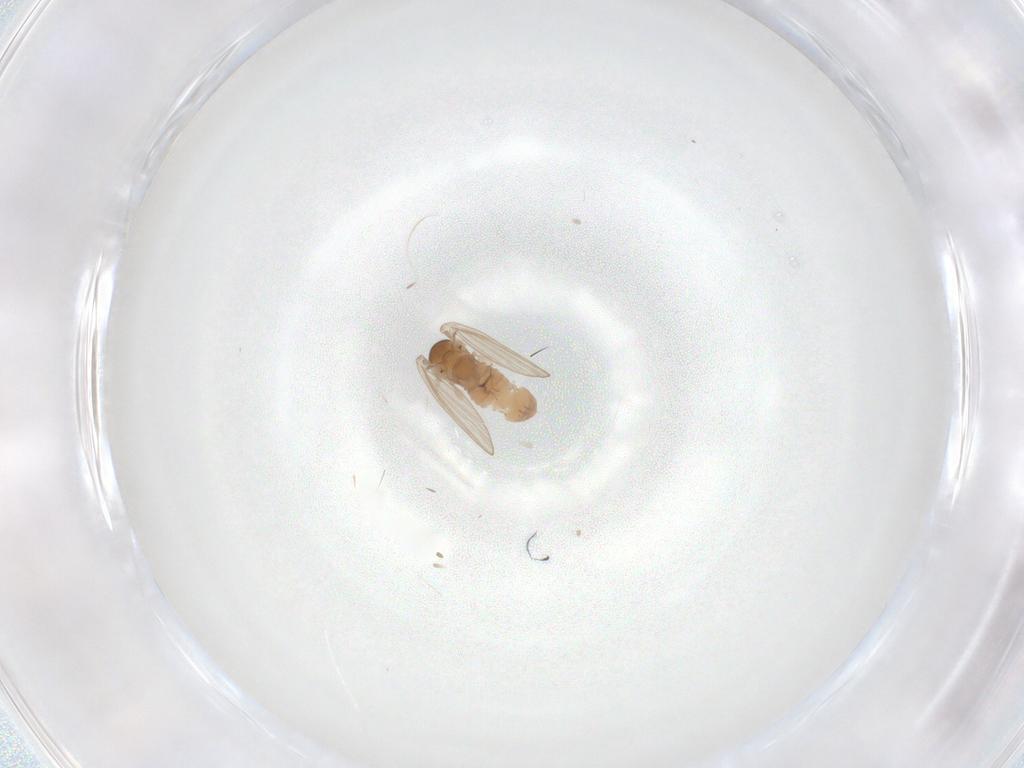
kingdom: Animalia
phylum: Arthropoda
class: Insecta
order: Diptera
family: Psychodidae
